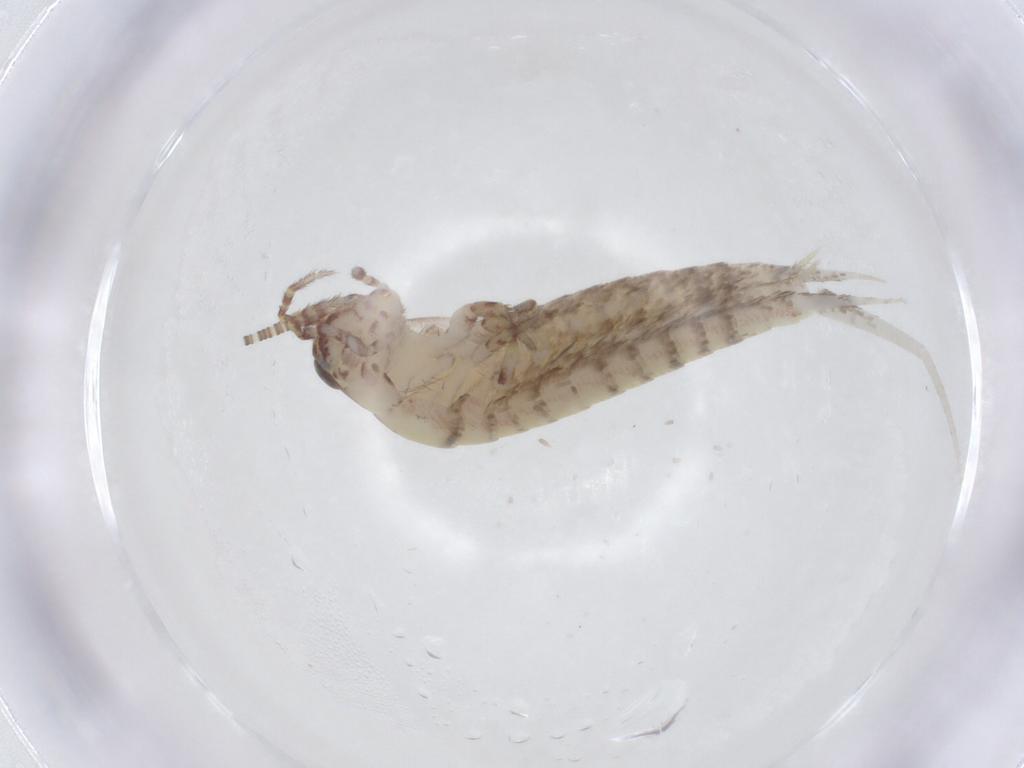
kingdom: Animalia
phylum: Arthropoda
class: Insecta
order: Archaeognatha
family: Meinertellidae
